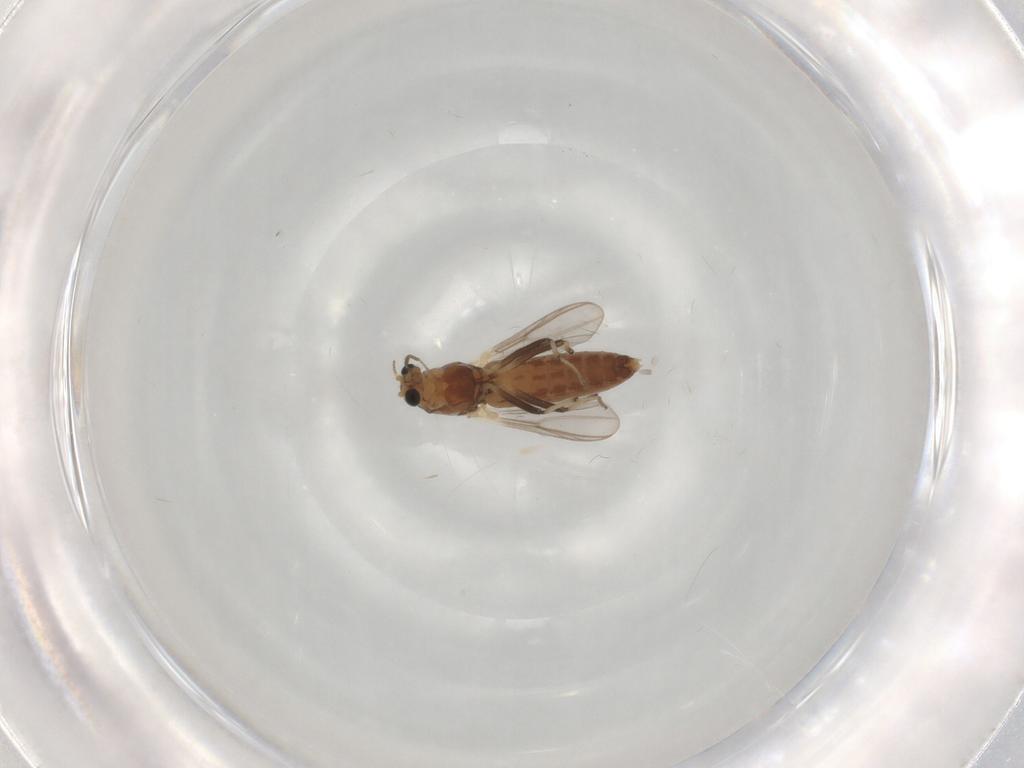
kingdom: Animalia
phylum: Arthropoda
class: Insecta
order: Diptera
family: Chironomidae
